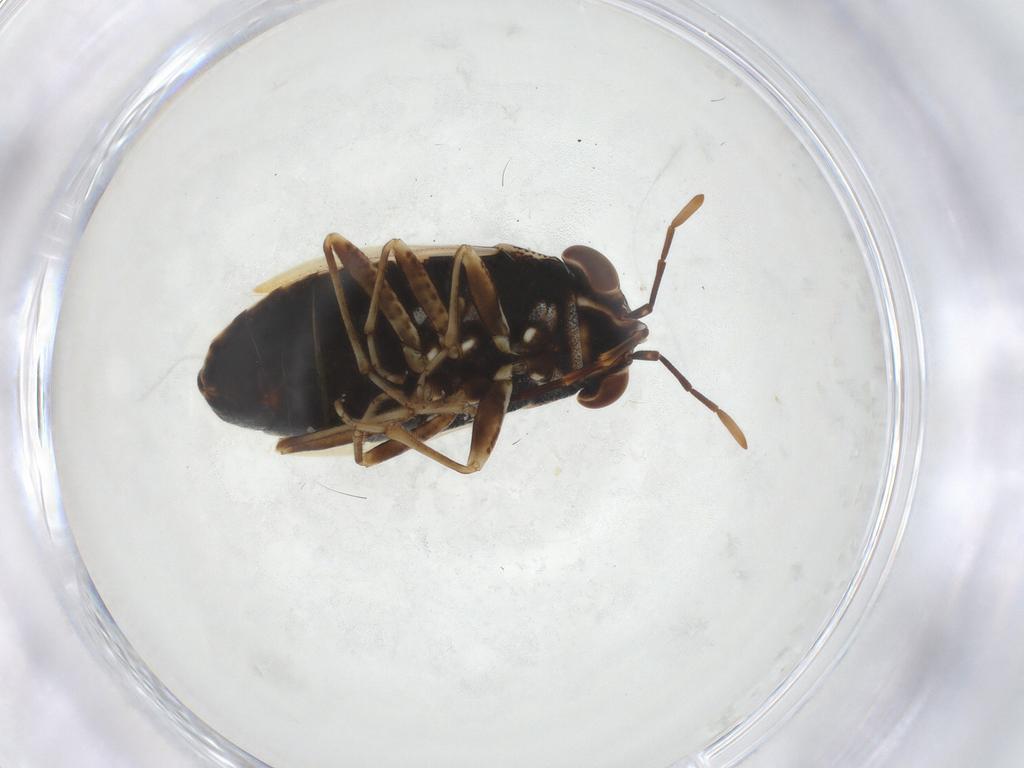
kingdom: Animalia
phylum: Arthropoda
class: Insecta
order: Hemiptera
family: Geocoridae
